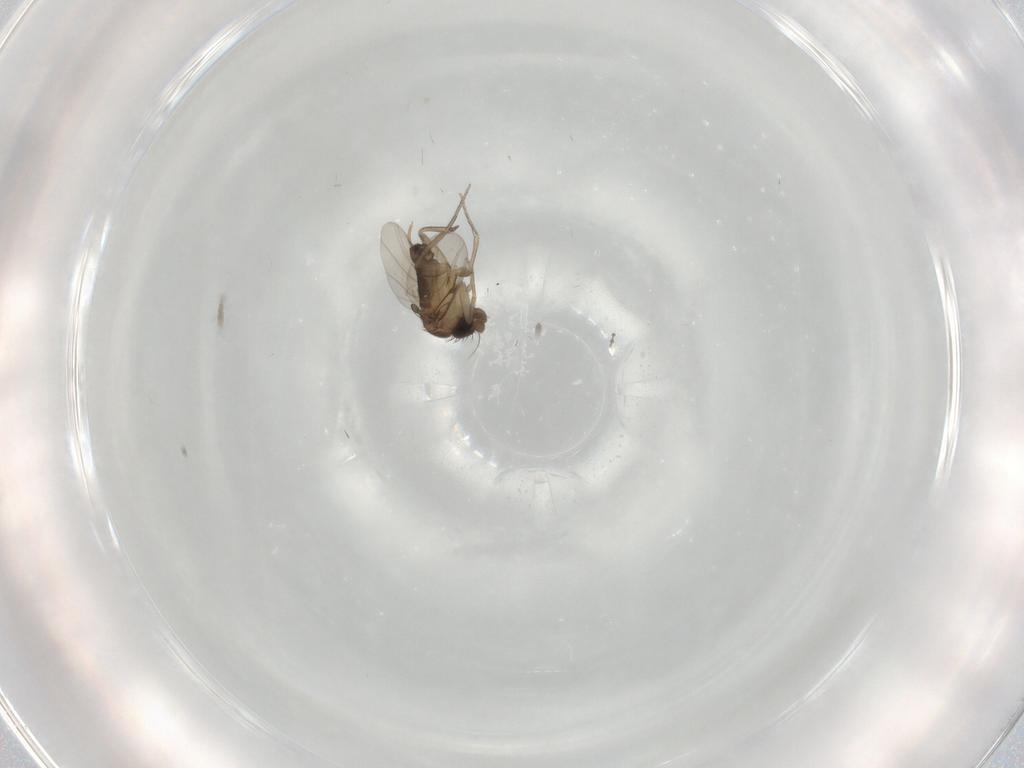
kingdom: Animalia
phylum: Arthropoda
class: Insecta
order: Diptera
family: Phoridae
